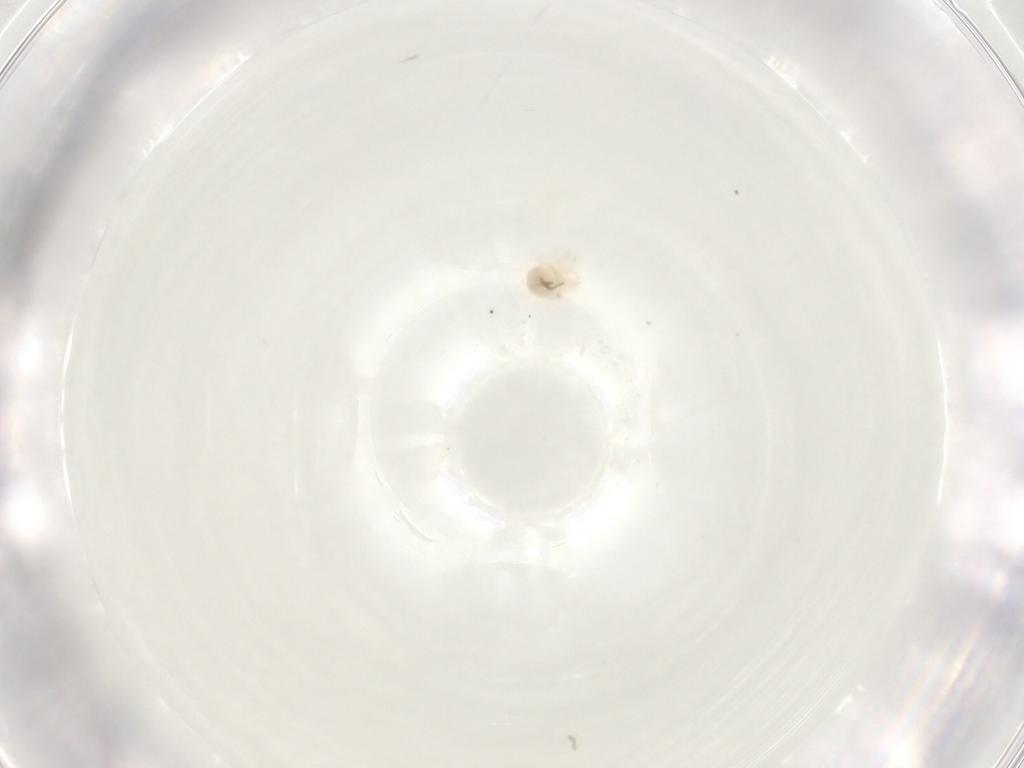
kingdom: Animalia
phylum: Arthropoda
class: Arachnida
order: Trombidiformes
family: Anystidae
